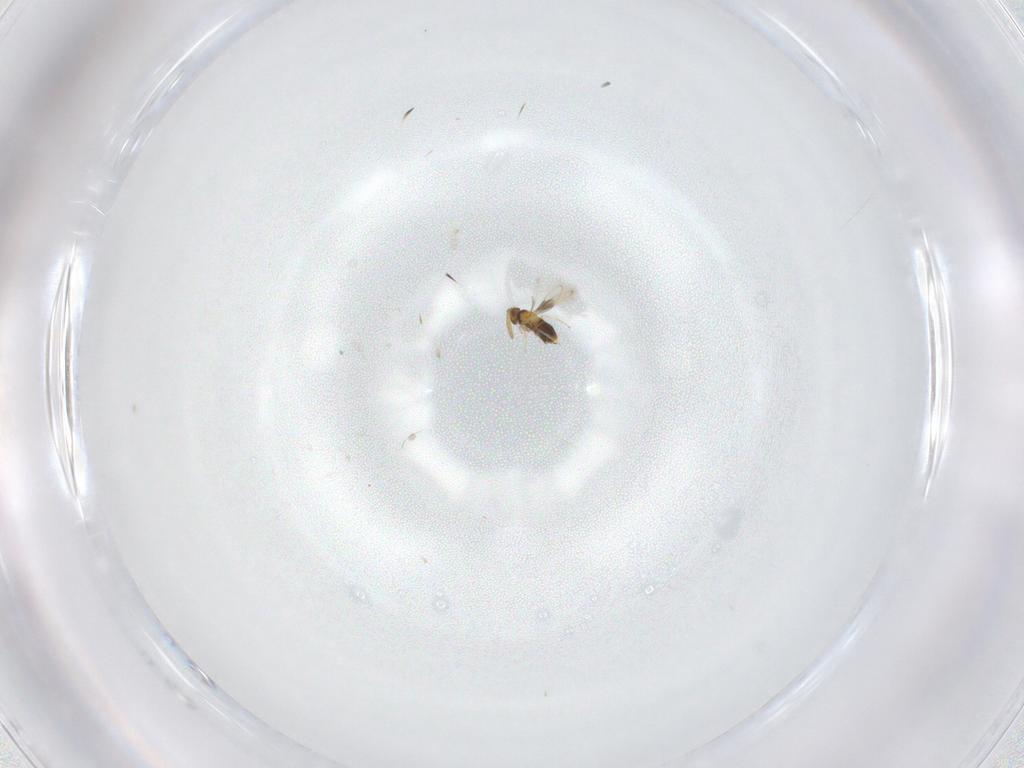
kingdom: Animalia
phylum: Arthropoda
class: Insecta
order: Hymenoptera
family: Aphelinidae
